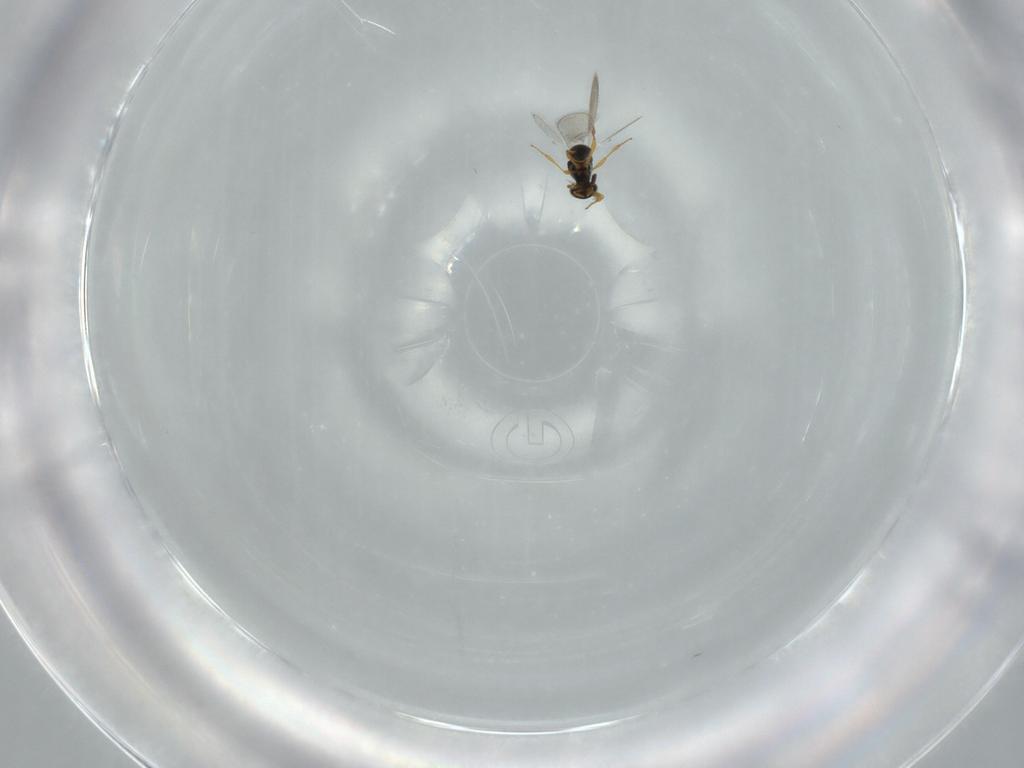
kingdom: Animalia
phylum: Arthropoda
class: Insecta
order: Hymenoptera
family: Platygastridae
